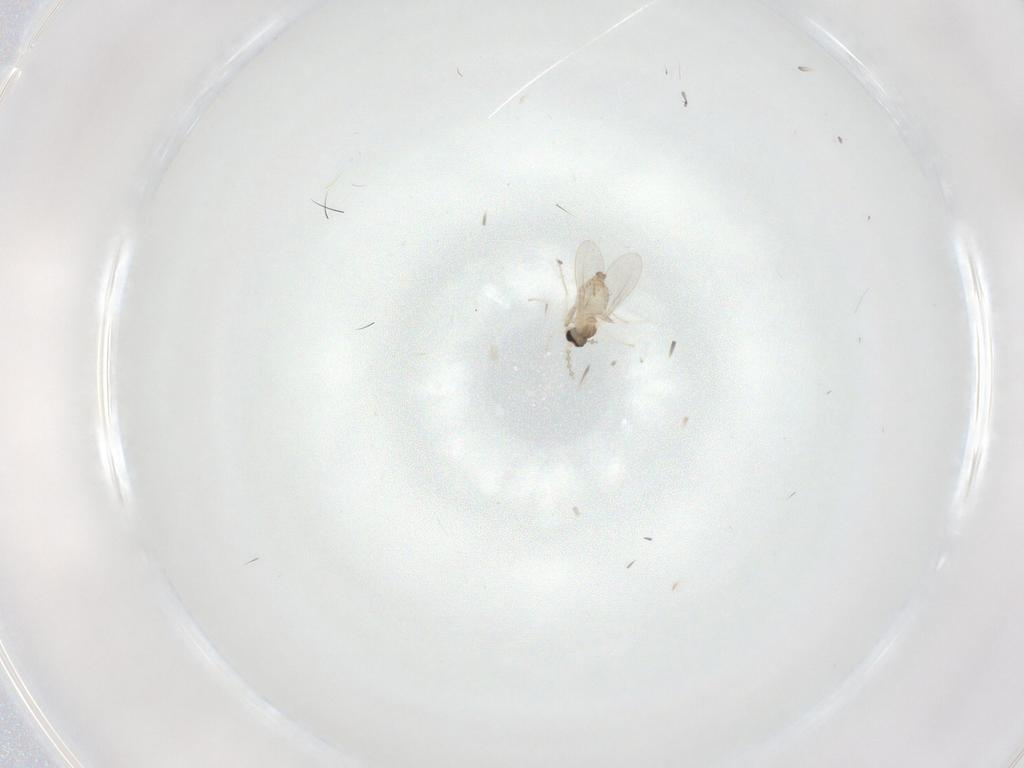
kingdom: Animalia
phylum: Arthropoda
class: Insecta
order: Diptera
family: Cecidomyiidae
